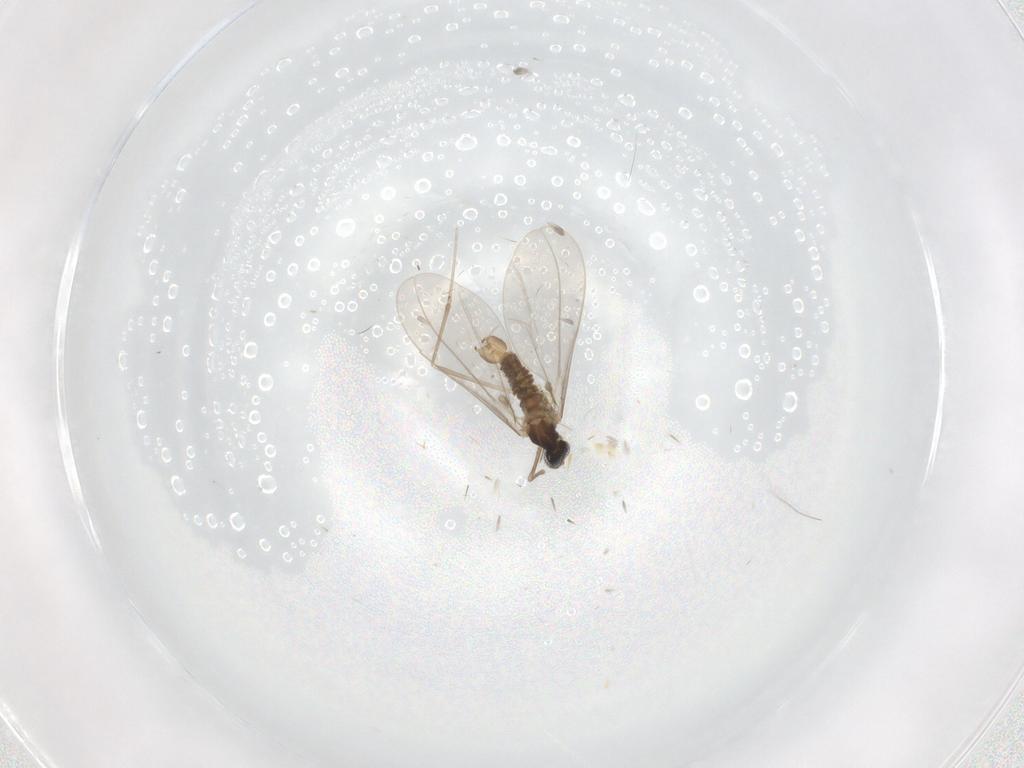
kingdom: Animalia
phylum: Arthropoda
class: Insecta
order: Diptera
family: Cecidomyiidae
